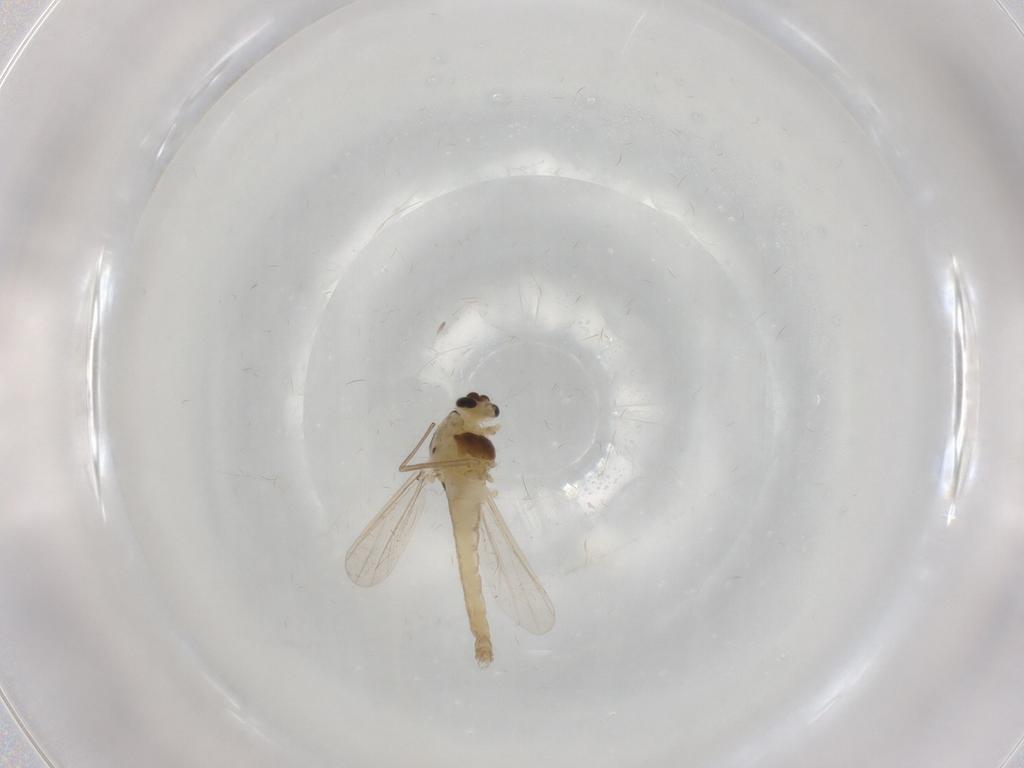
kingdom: Animalia
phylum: Arthropoda
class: Insecta
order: Diptera
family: Chironomidae
